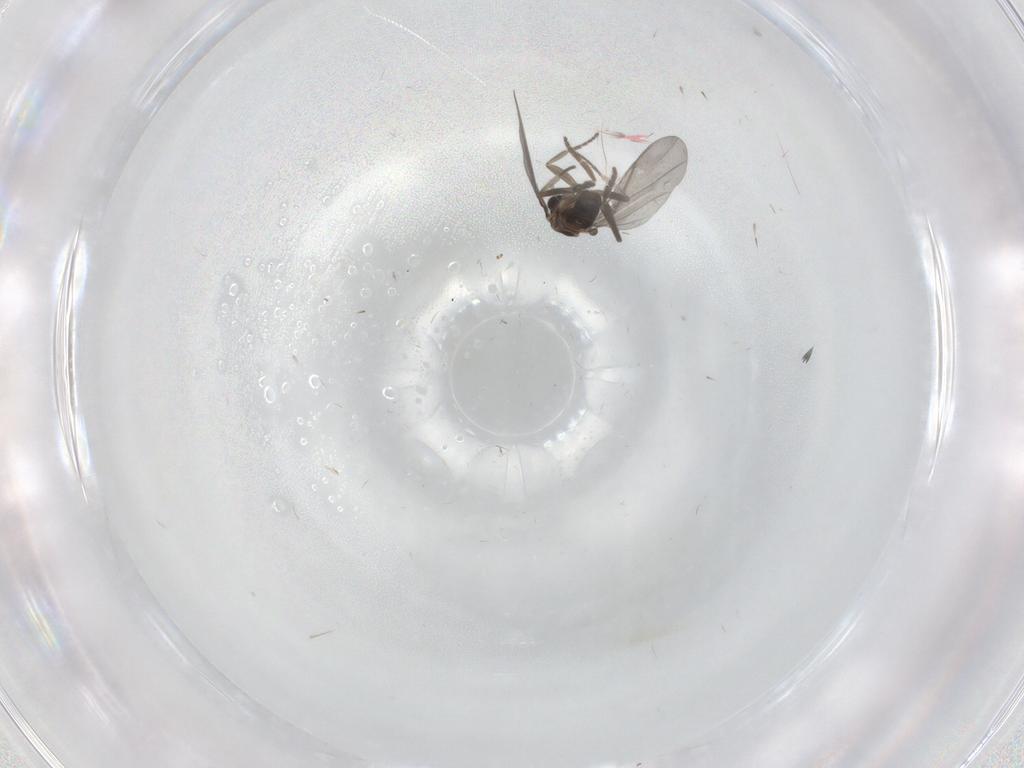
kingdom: Animalia
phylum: Arthropoda
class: Insecta
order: Diptera
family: Phoridae
